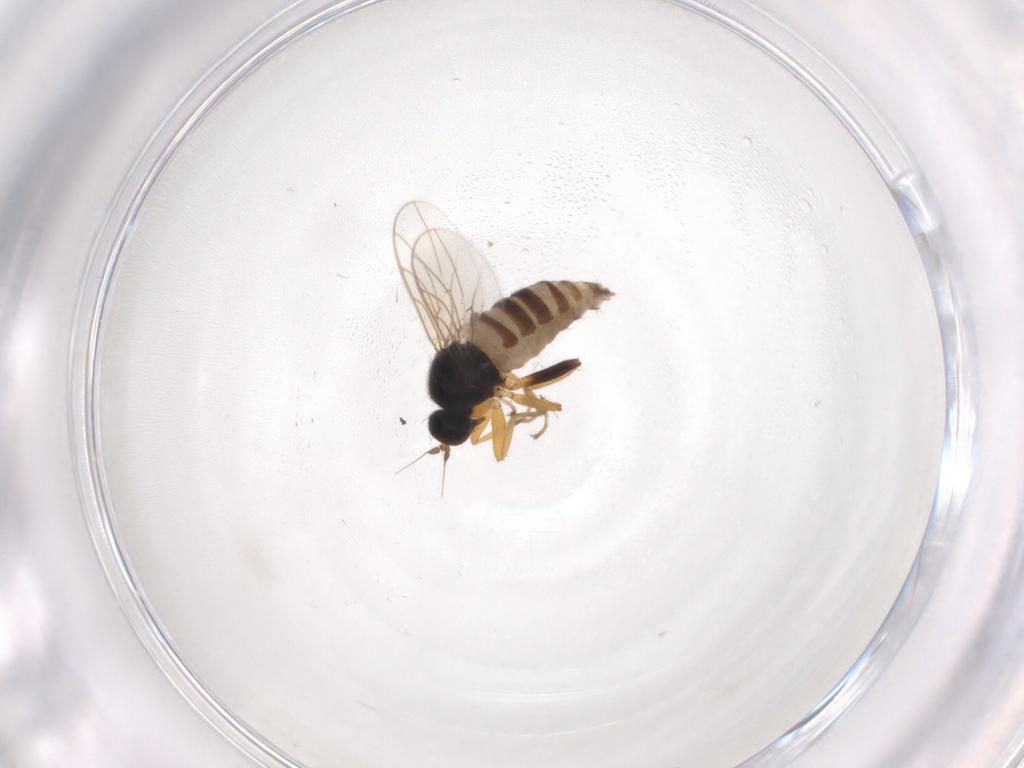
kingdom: Animalia
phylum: Arthropoda
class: Insecta
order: Diptera
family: Hybotidae
